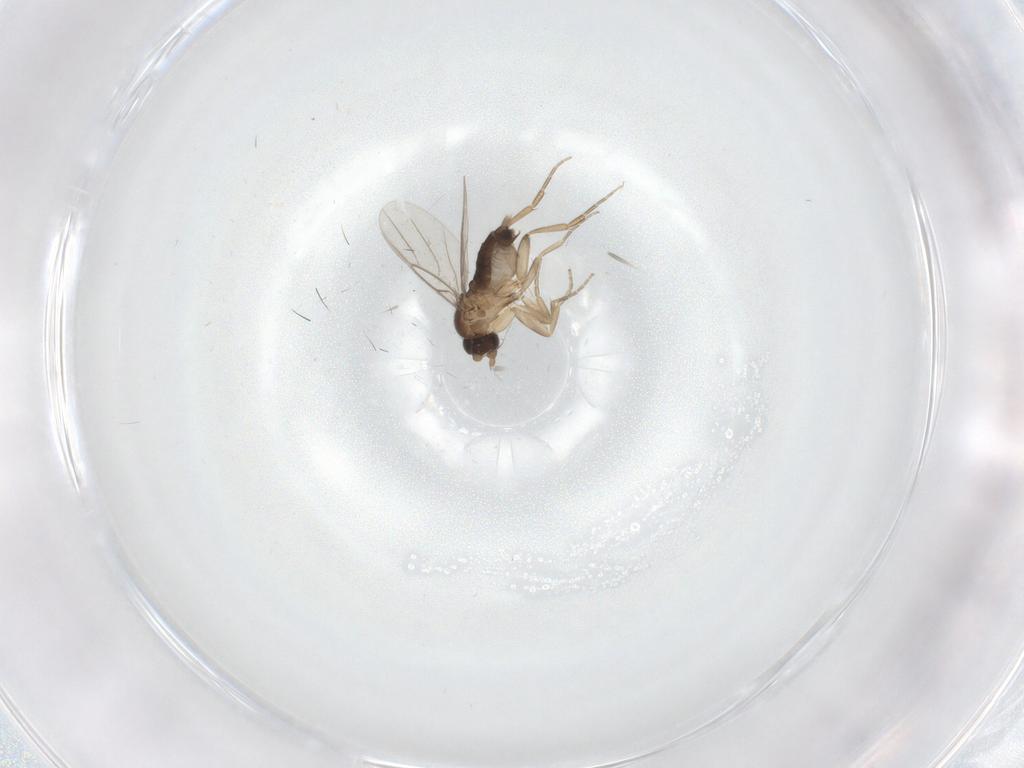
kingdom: Animalia
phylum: Arthropoda
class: Insecta
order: Diptera
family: Phoridae
